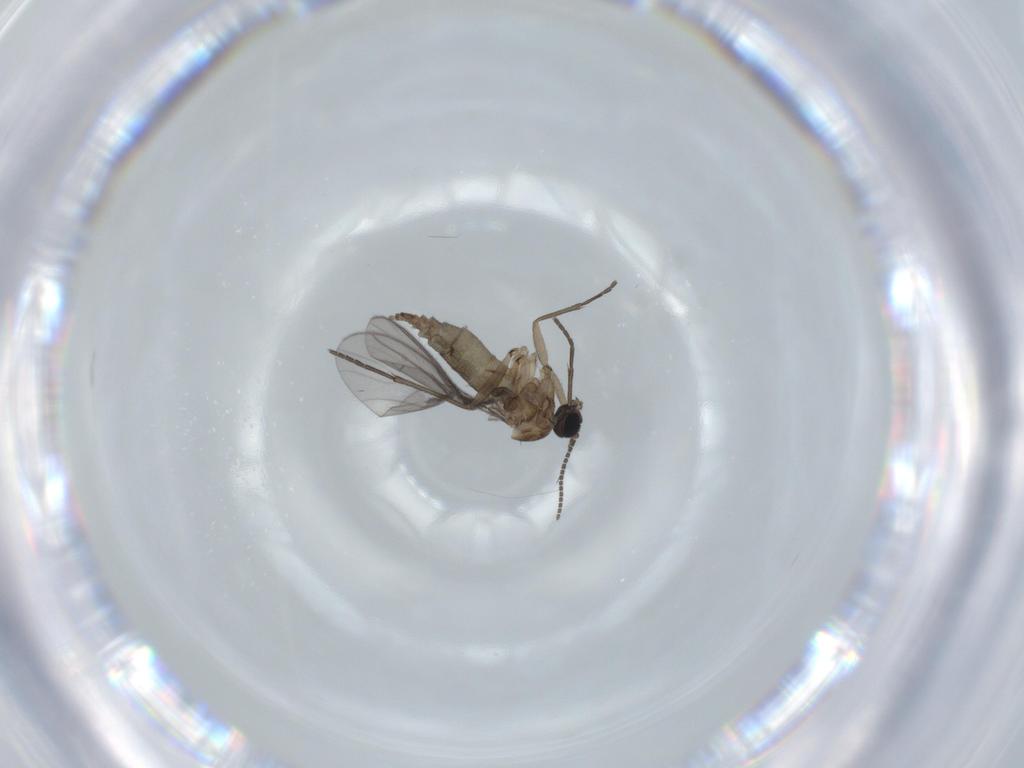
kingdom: Animalia
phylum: Arthropoda
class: Insecta
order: Diptera
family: Sciaridae
